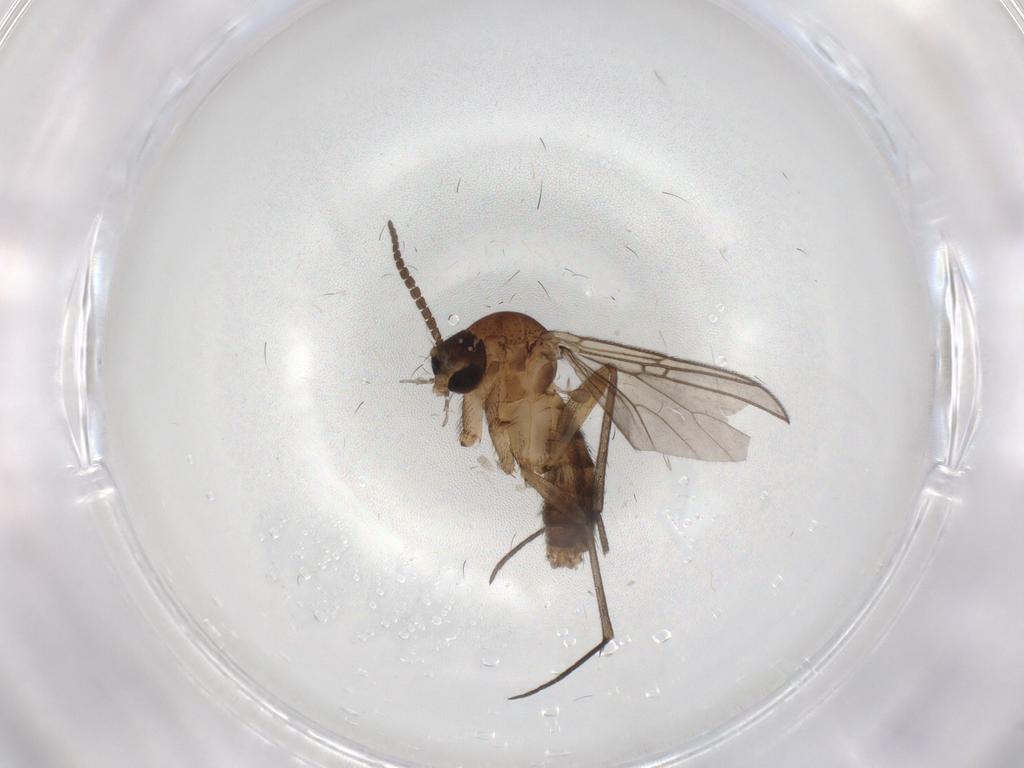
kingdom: Animalia
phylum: Arthropoda
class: Insecta
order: Diptera
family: Mycetophilidae
